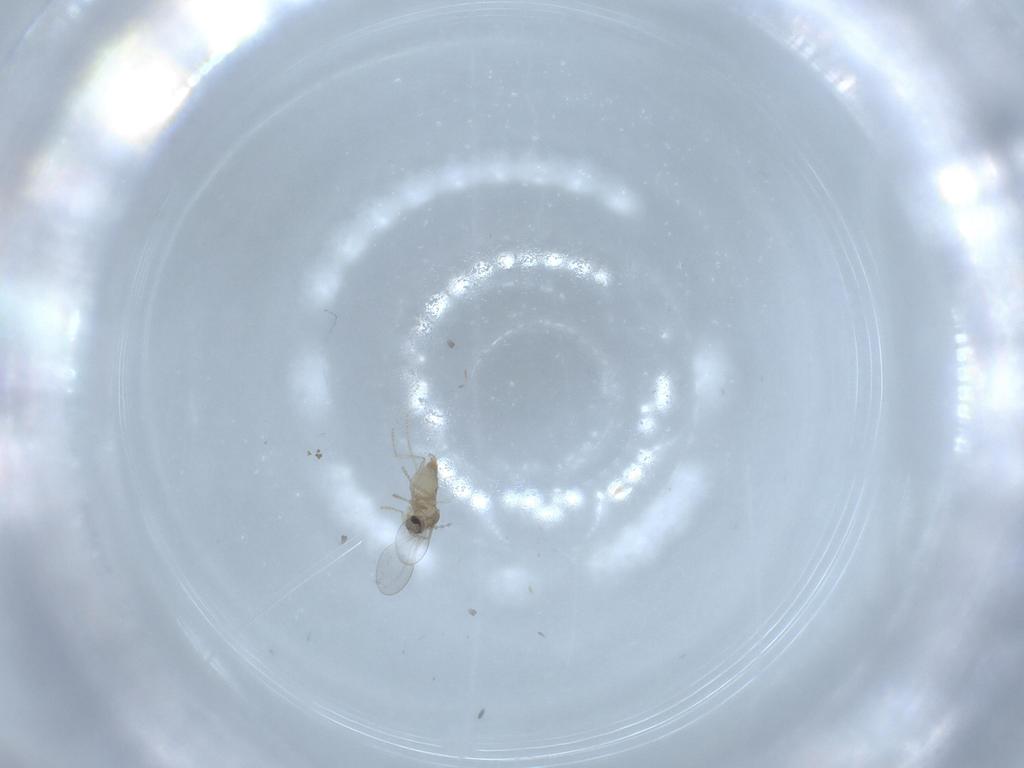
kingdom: Animalia
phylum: Arthropoda
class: Insecta
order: Diptera
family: Cecidomyiidae
